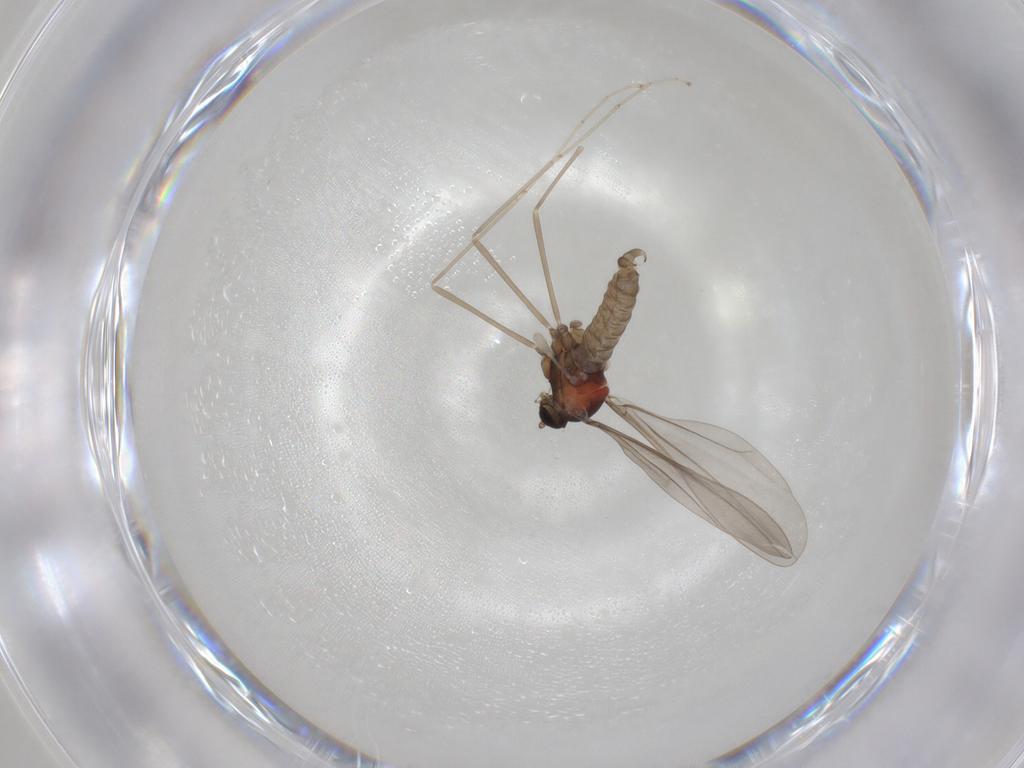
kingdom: Animalia
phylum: Arthropoda
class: Insecta
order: Diptera
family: Cecidomyiidae
